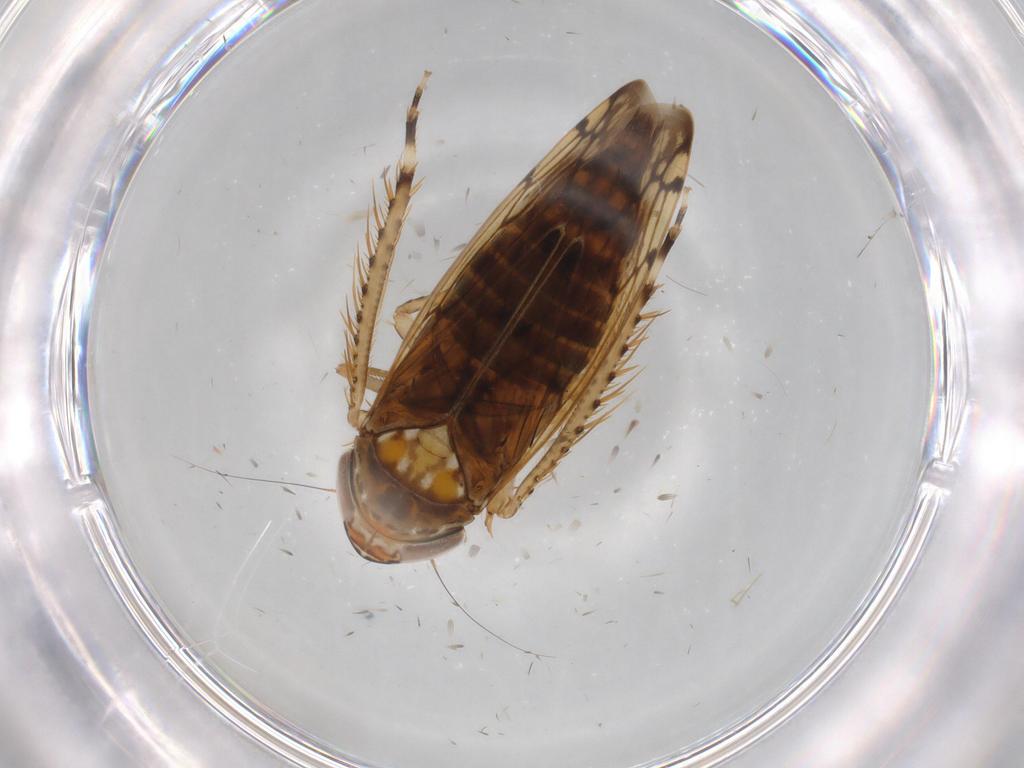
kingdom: Animalia
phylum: Arthropoda
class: Insecta
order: Hemiptera
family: Cicadellidae
